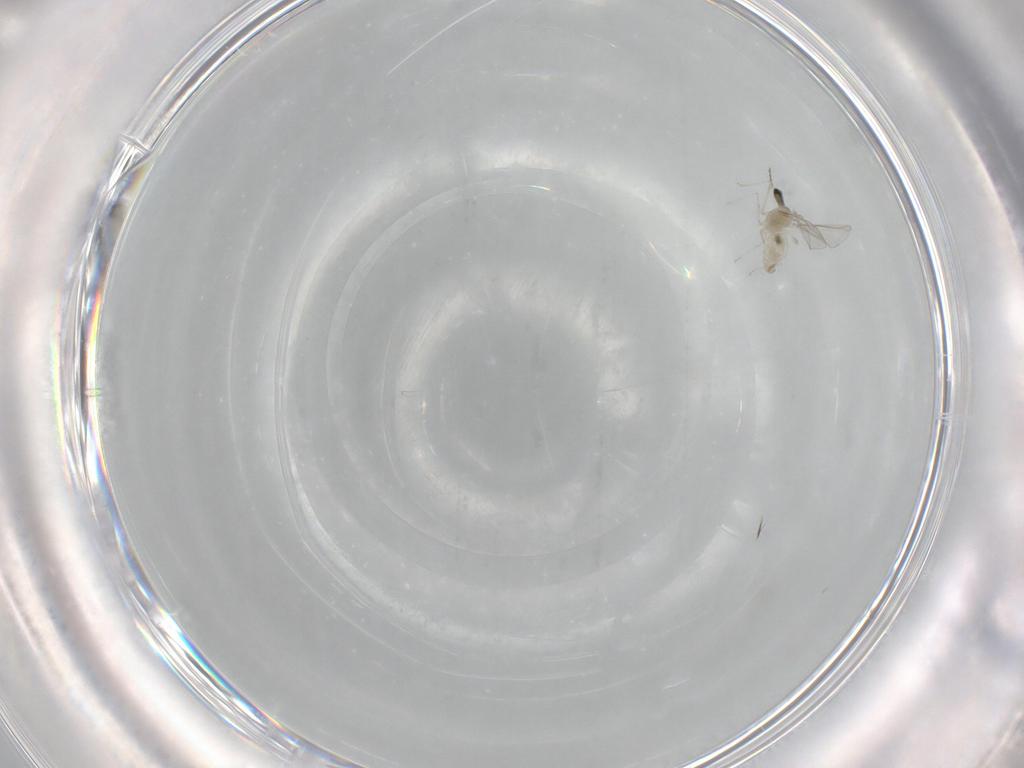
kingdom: Animalia
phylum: Arthropoda
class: Insecta
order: Diptera
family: Cecidomyiidae
